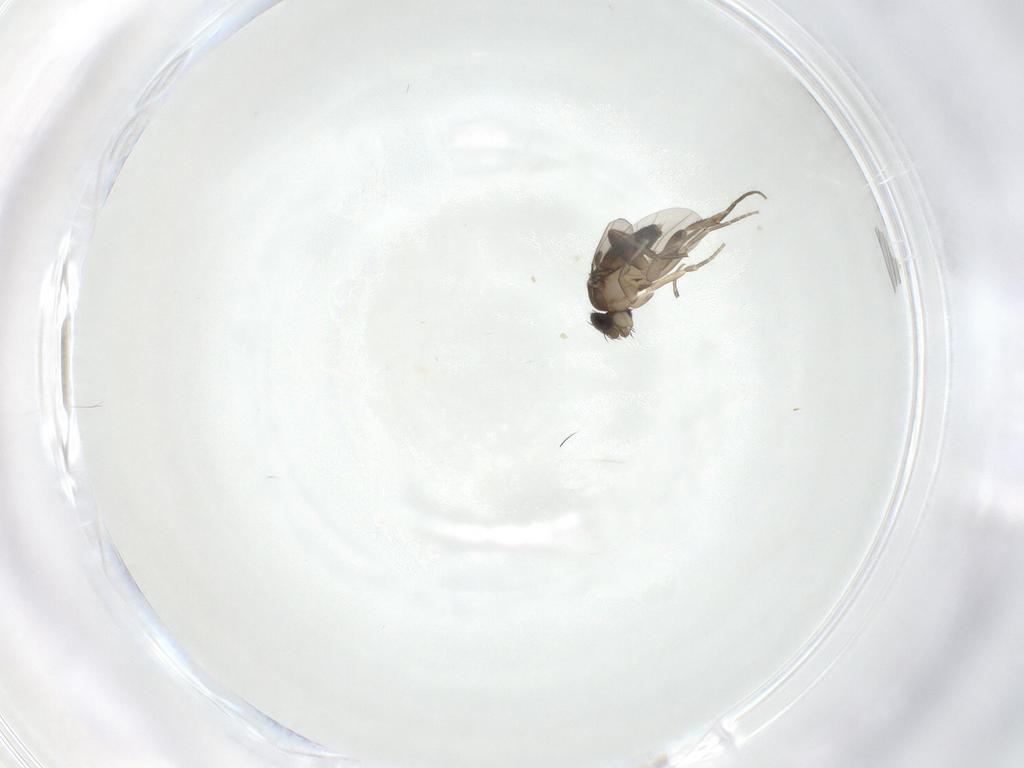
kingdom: Animalia
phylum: Arthropoda
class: Insecta
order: Diptera
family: Phoridae
